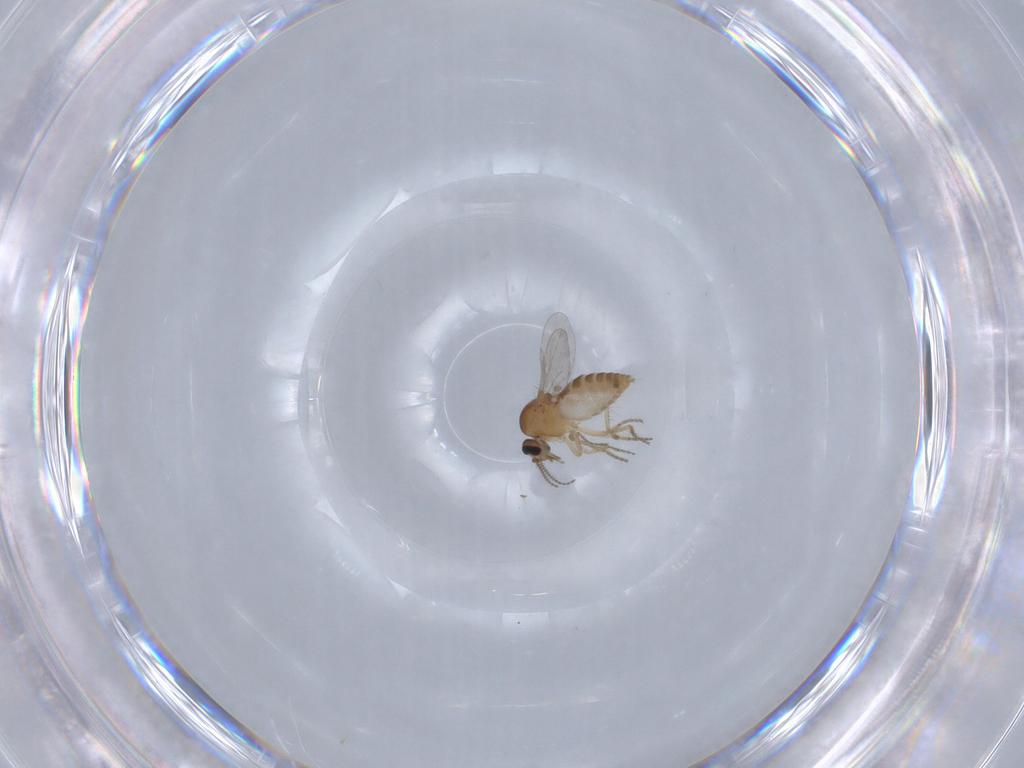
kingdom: Animalia
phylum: Arthropoda
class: Insecta
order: Diptera
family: Ceratopogonidae
